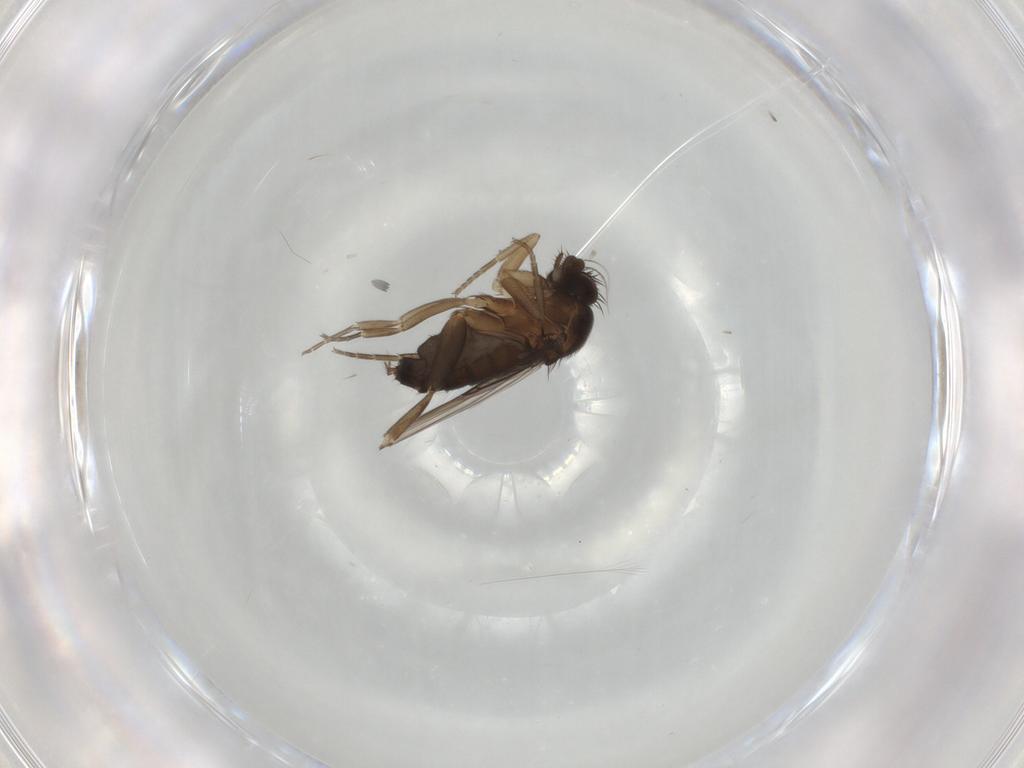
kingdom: Animalia
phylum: Arthropoda
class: Insecta
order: Diptera
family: Phoridae
